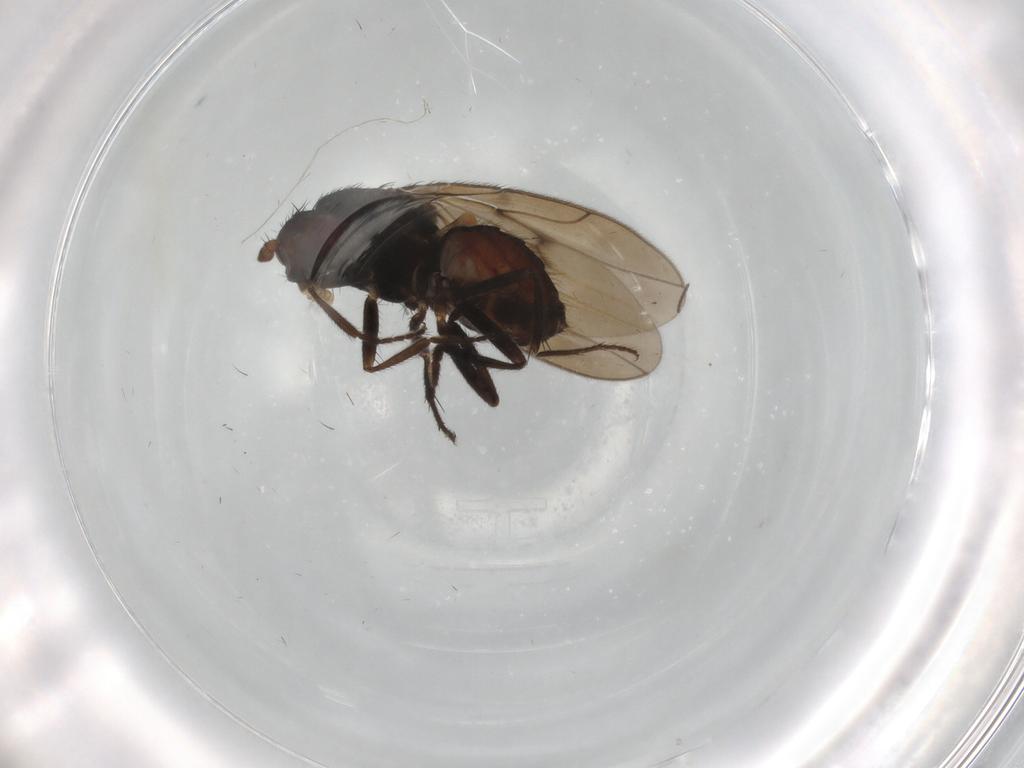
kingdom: Animalia
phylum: Arthropoda
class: Insecta
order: Diptera
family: Sphaeroceridae
